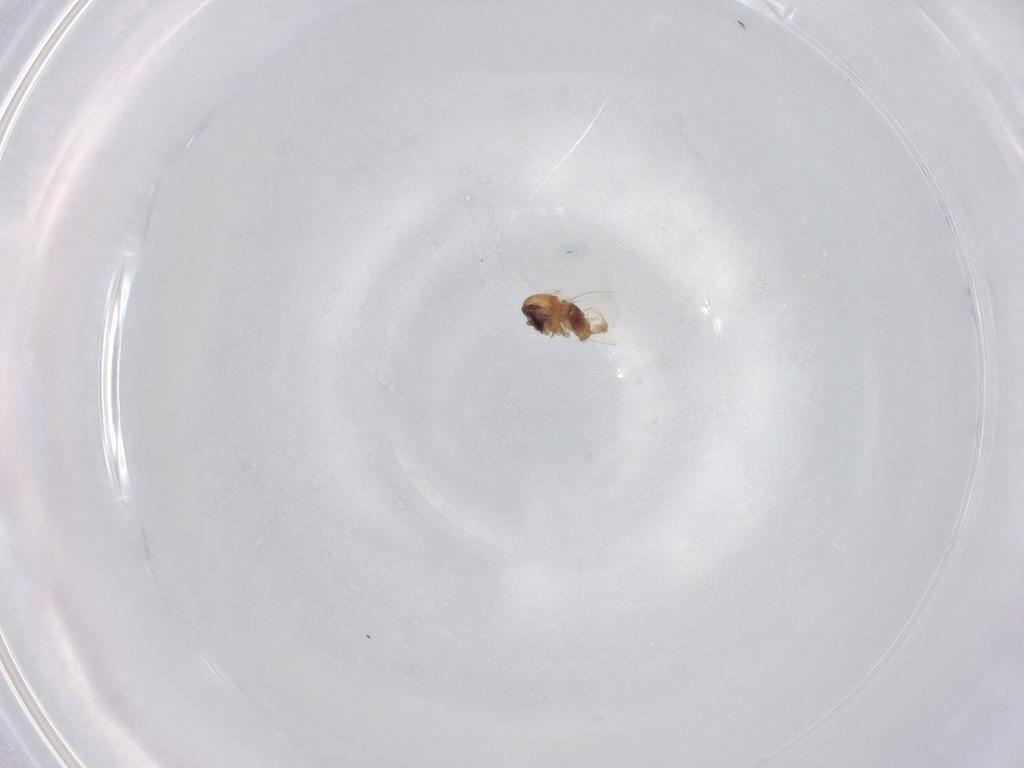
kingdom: Animalia
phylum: Arthropoda
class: Insecta
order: Diptera
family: Psychodidae
